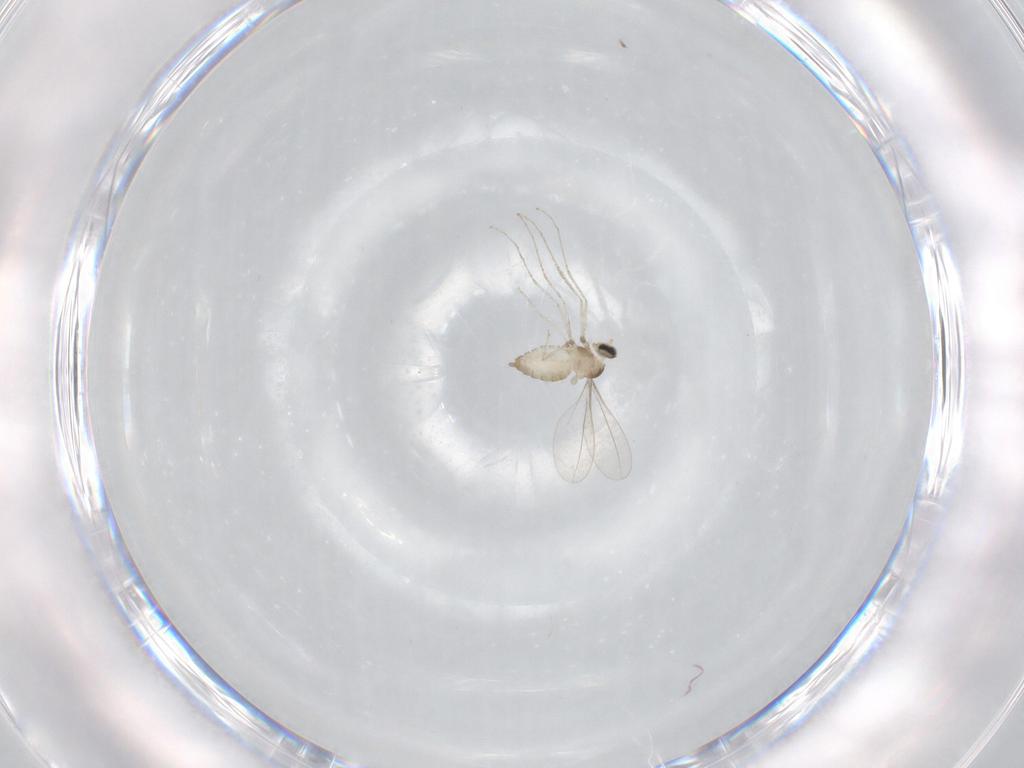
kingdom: Animalia
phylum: Arthropoda
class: Insecta
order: Diptera
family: Cecidomyiidae
